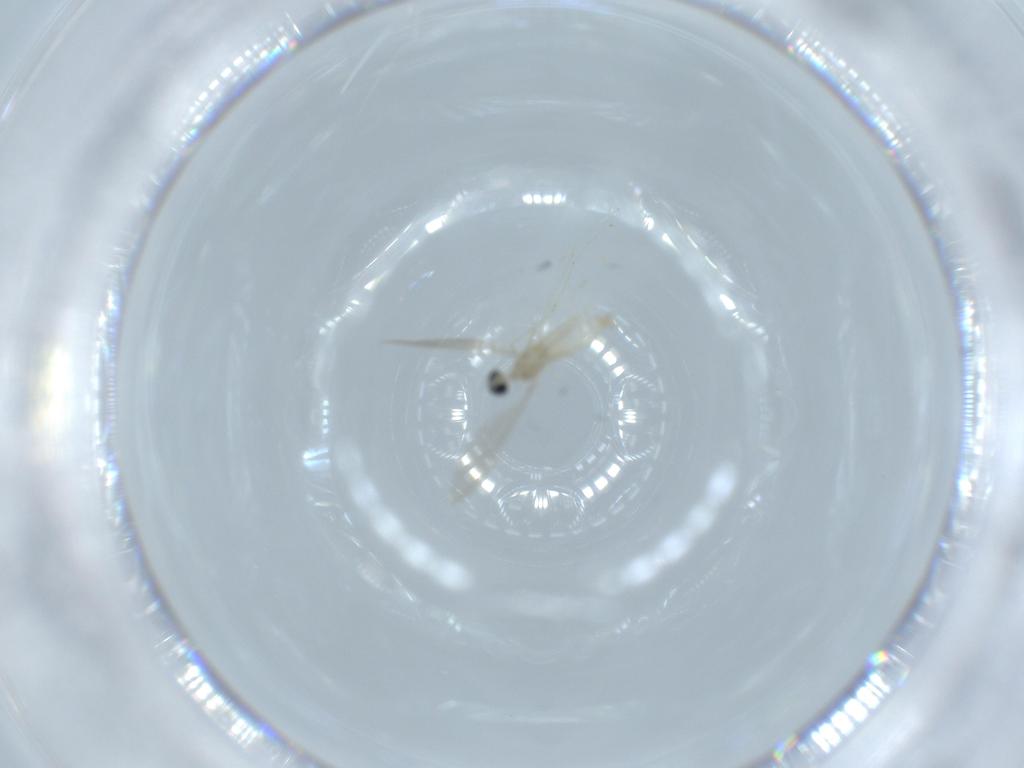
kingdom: Animalia
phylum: Arthropoda
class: Insecta
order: Diptera
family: Cecidomyiidae
